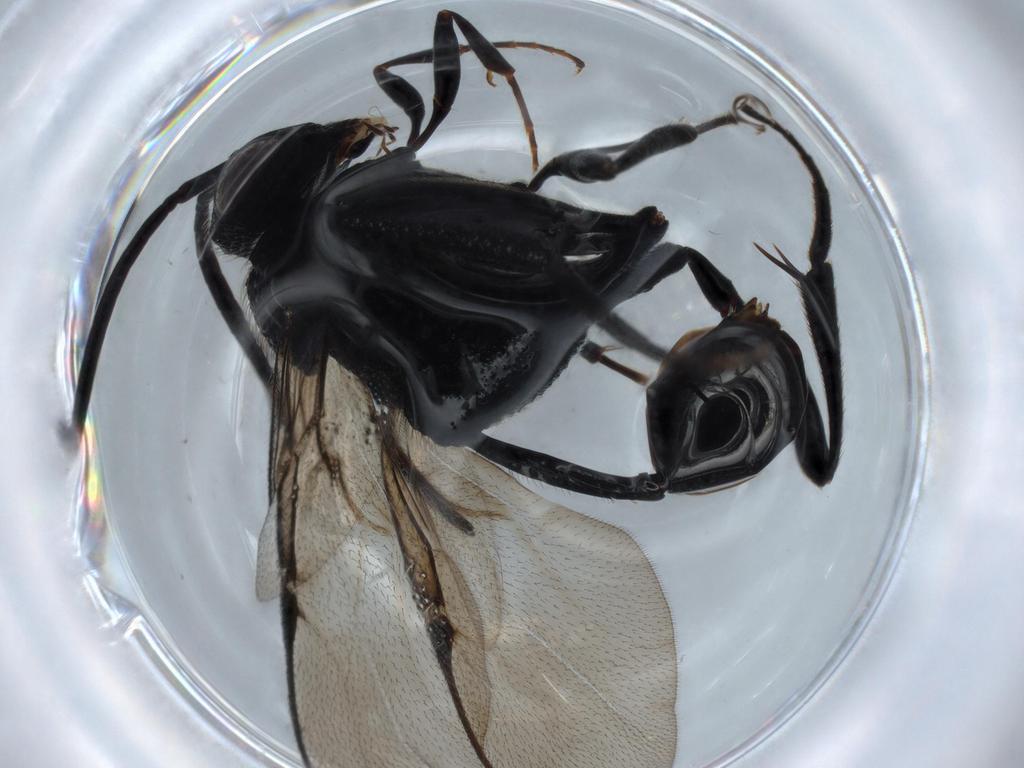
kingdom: Animalia
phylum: Arthropoda
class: Insecta
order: Hymenoptera
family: Evaniidae
